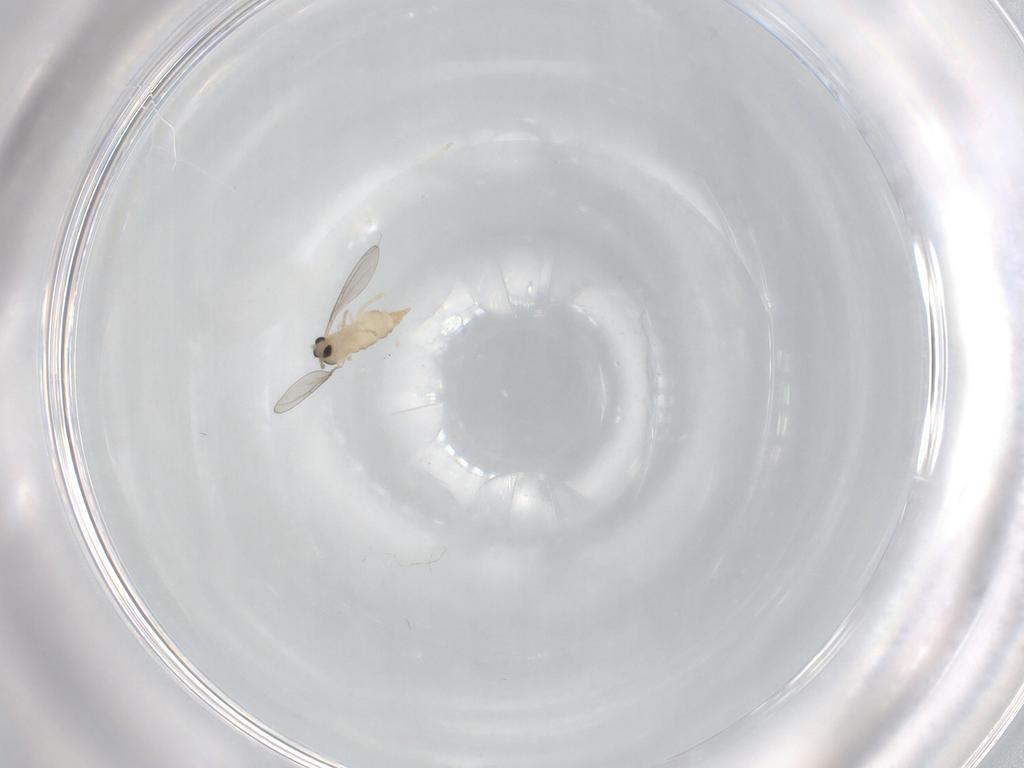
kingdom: Animalia
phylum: Arthropoda
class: Insecta
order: Diptera
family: Cecidomyiidae
